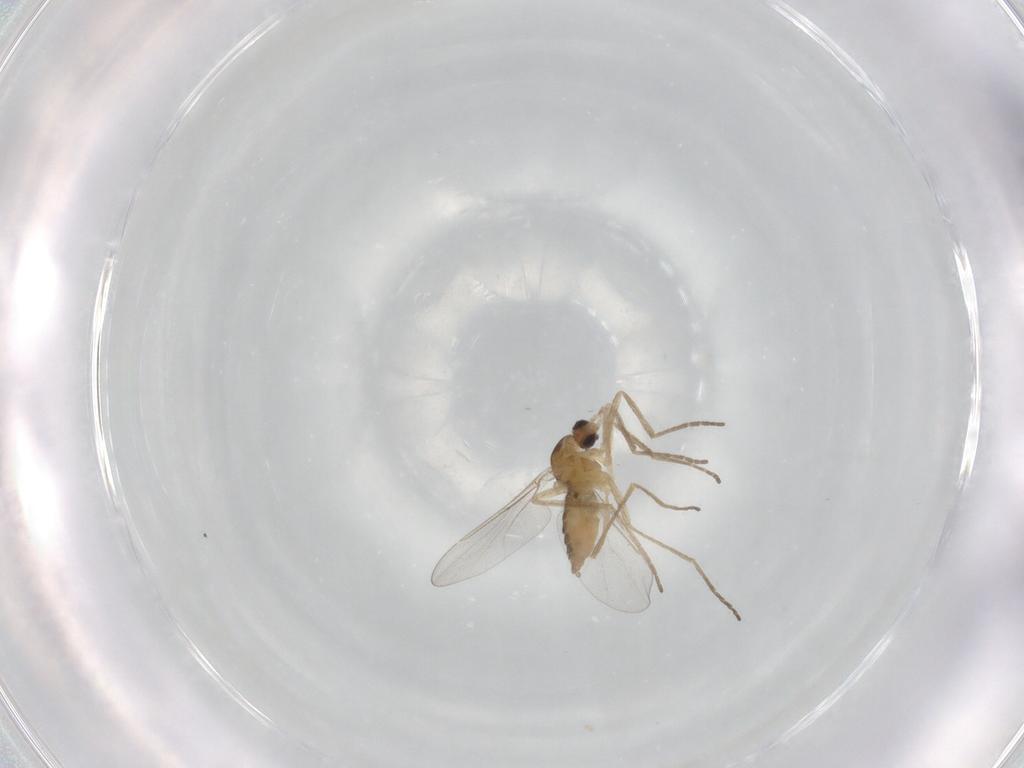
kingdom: Animalia
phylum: Arthropoda
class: Insecta
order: Diptera
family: Cecidomyiidae
